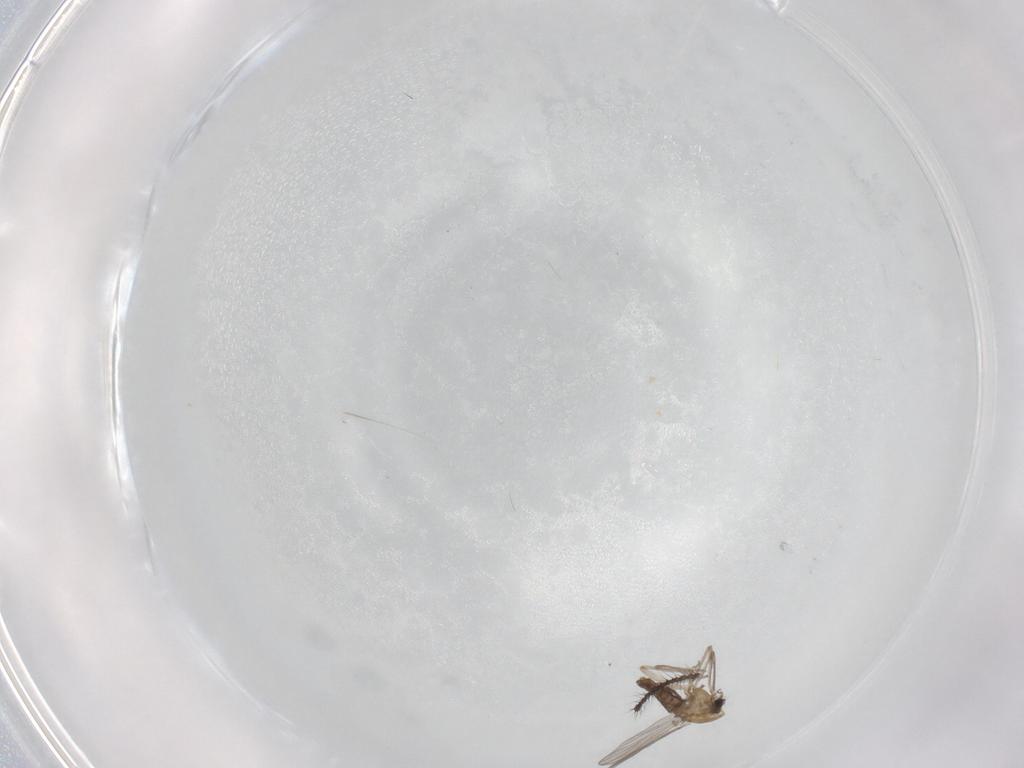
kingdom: Animalia
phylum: Arthropoda
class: Insecta
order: Diptera
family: Chironomidae
